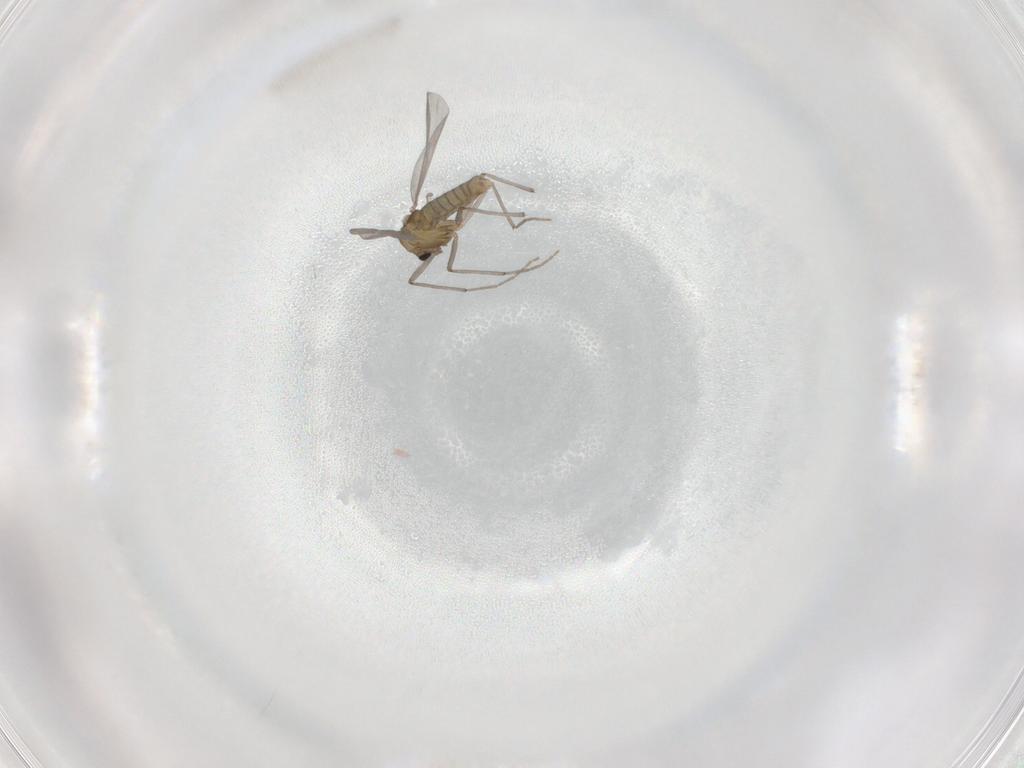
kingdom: Animalia
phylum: Arthropoda
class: Insecta
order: Diptera
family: Chironomidae
